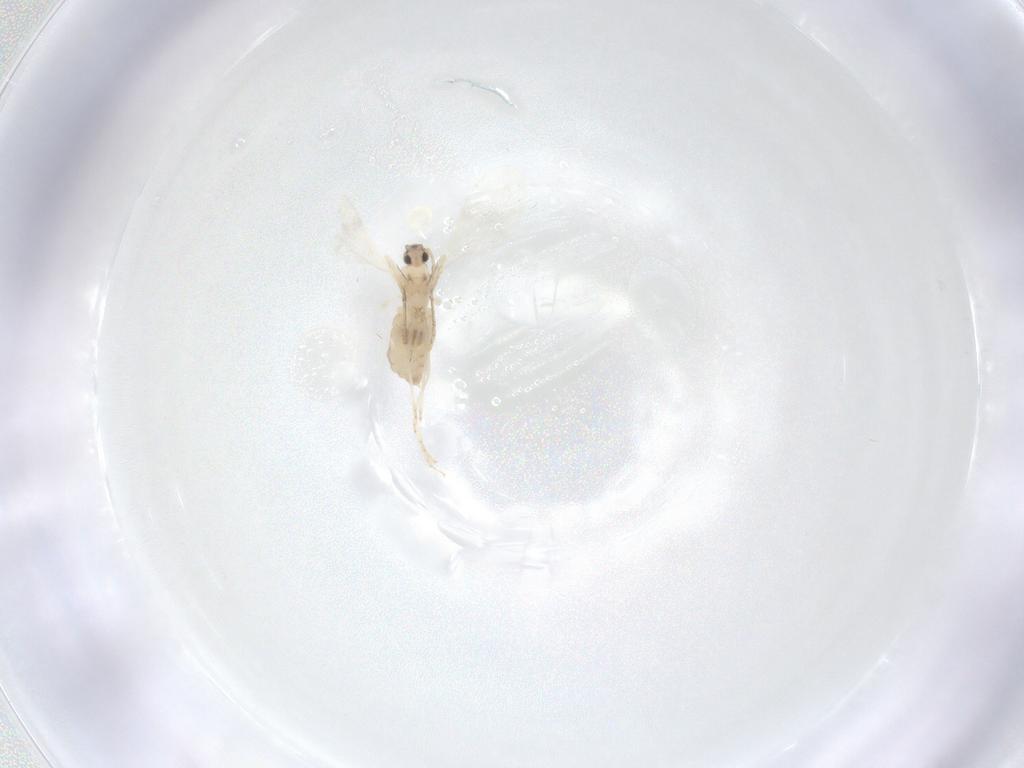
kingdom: Animalia
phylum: Arthropoda
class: Insecta
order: Diptera
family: Cecidomyiidae
